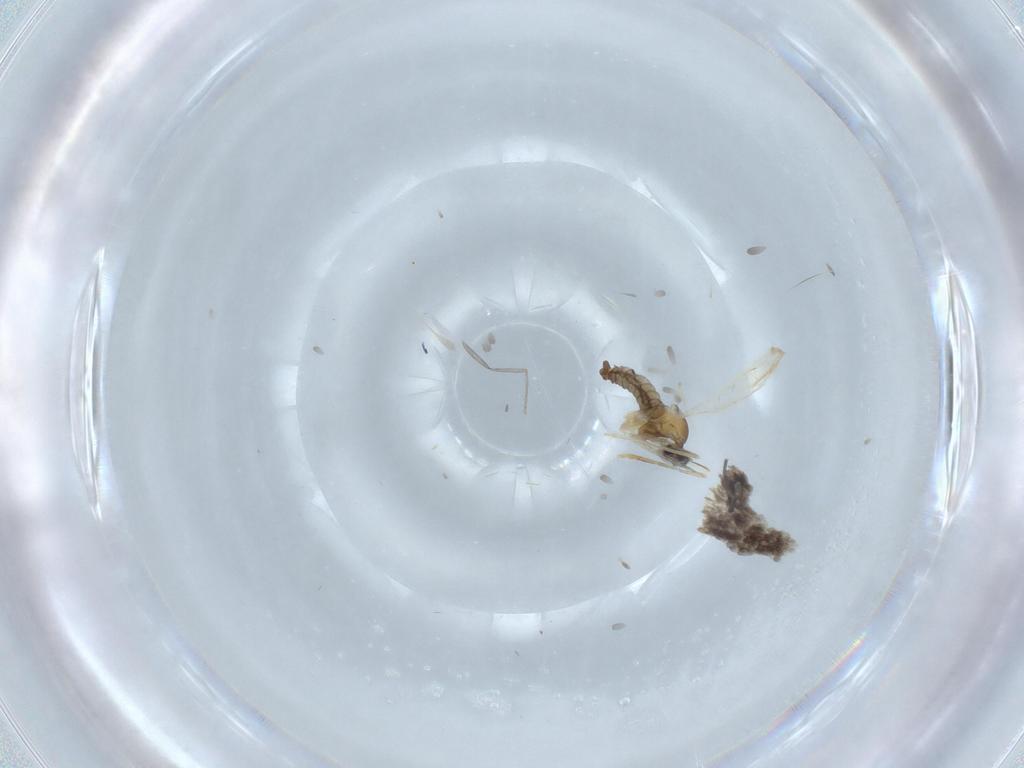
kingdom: Animalia
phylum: Arthropoda
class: Insecta
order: Diptera
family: Cecidomyiidae
